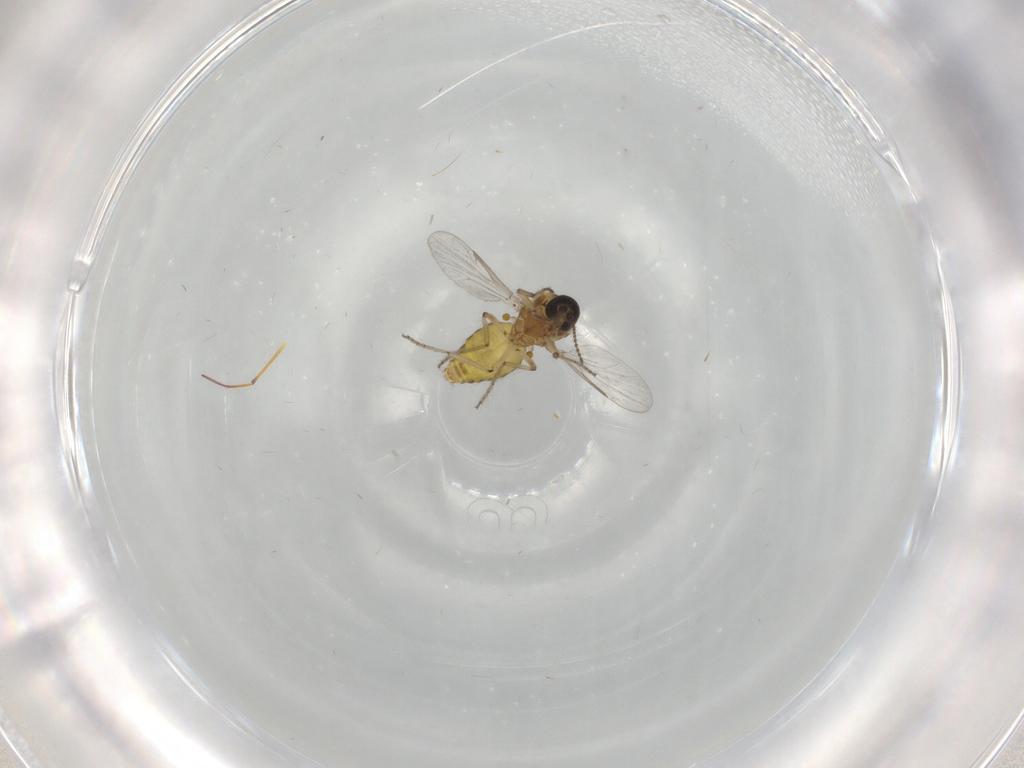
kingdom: Animalia
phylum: Arthropoda
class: Insecta
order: Diptera
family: Ceratopogonidae
